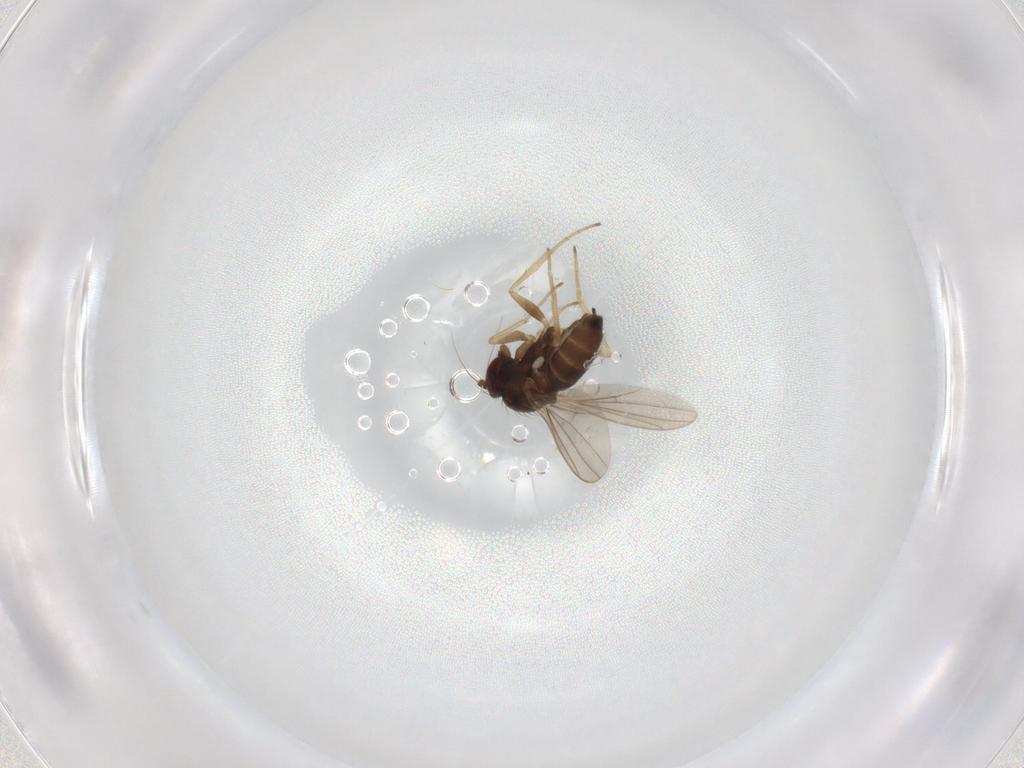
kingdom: Animalia
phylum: Arthropoda
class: Insecta
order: Diptera
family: Dolichopodidae
